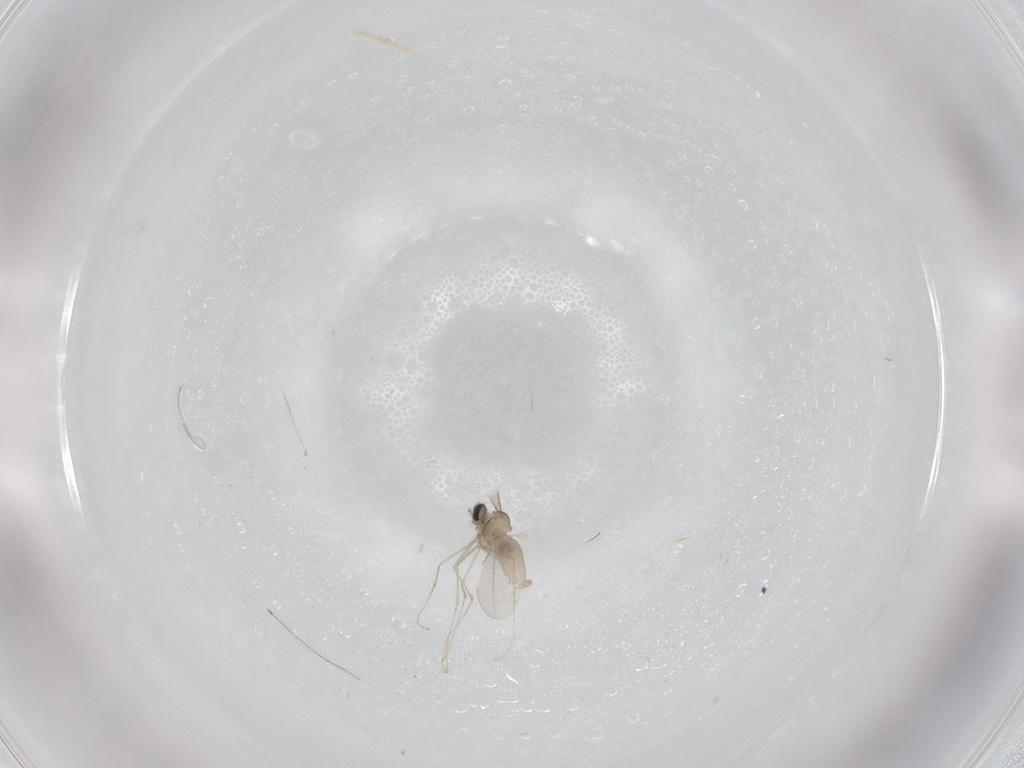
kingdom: Animalia
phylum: Arthropoda
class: Insecta
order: Diptera
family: Cecidomyiidae
